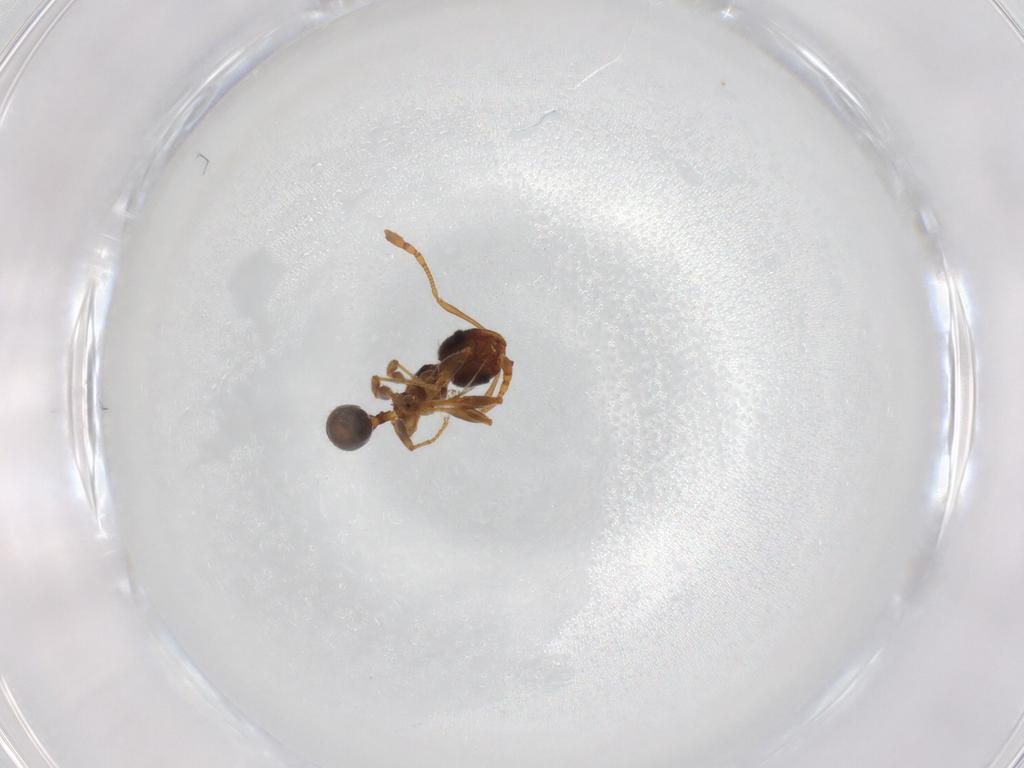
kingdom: Animalia
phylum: Arthropoda
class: Insecta
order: Hymenoptera
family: Formicidae
